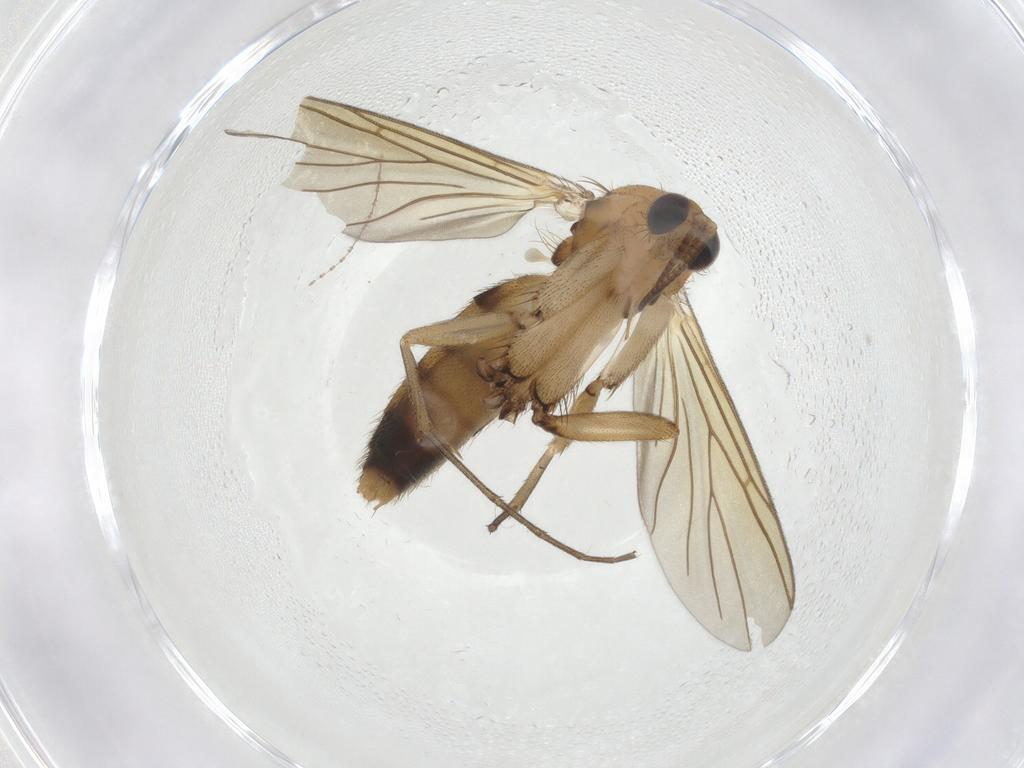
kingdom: Animalia
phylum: Arthropoda
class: Insecta
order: Diptera
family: Mycetophilidae
